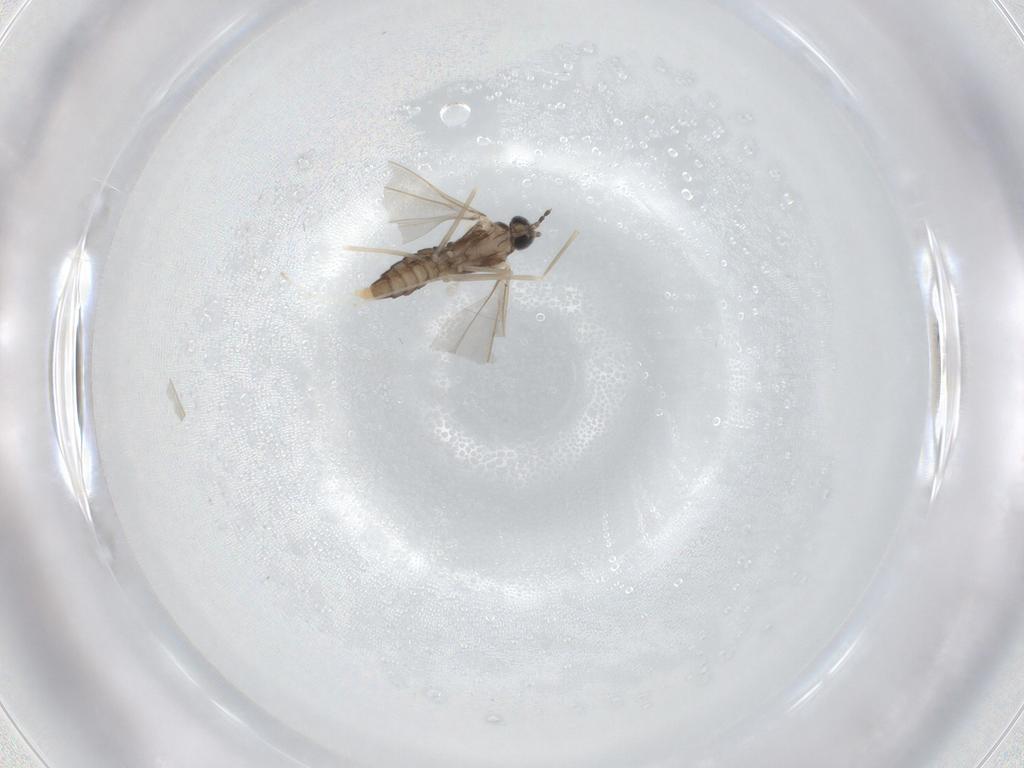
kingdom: Animalia
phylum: Arthropoda
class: Insecta
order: Diptera
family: Cecidomyiidae
